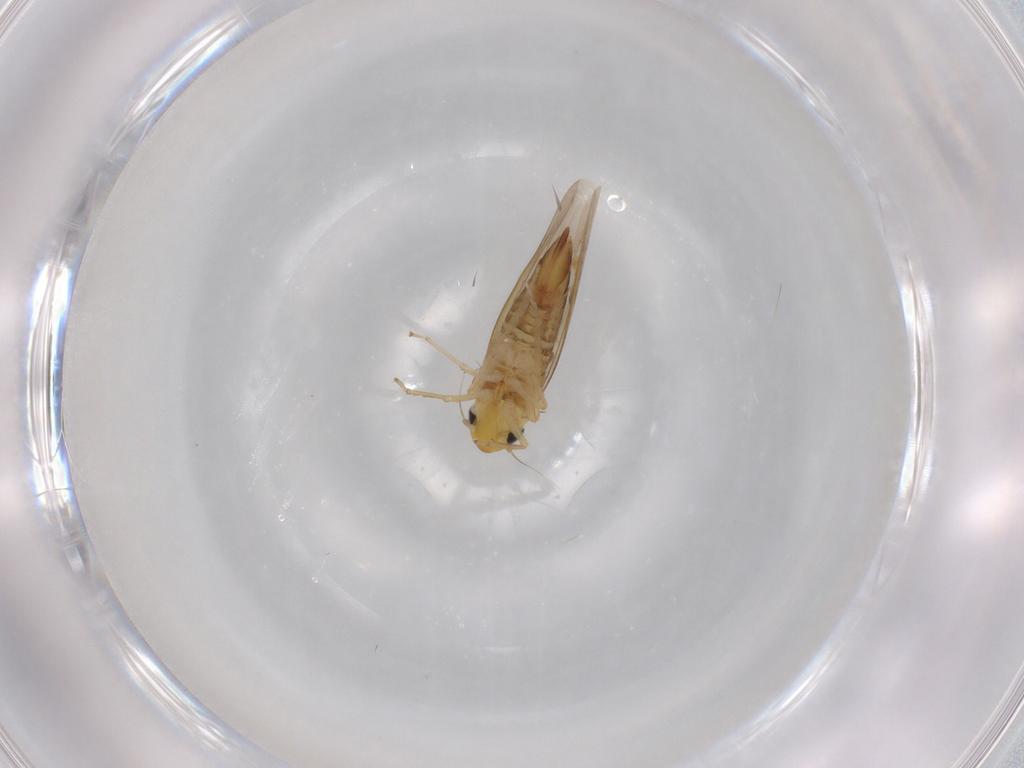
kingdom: Animalia
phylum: Arthropoda
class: Insecta
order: Hemiptera
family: Cicadellidae
